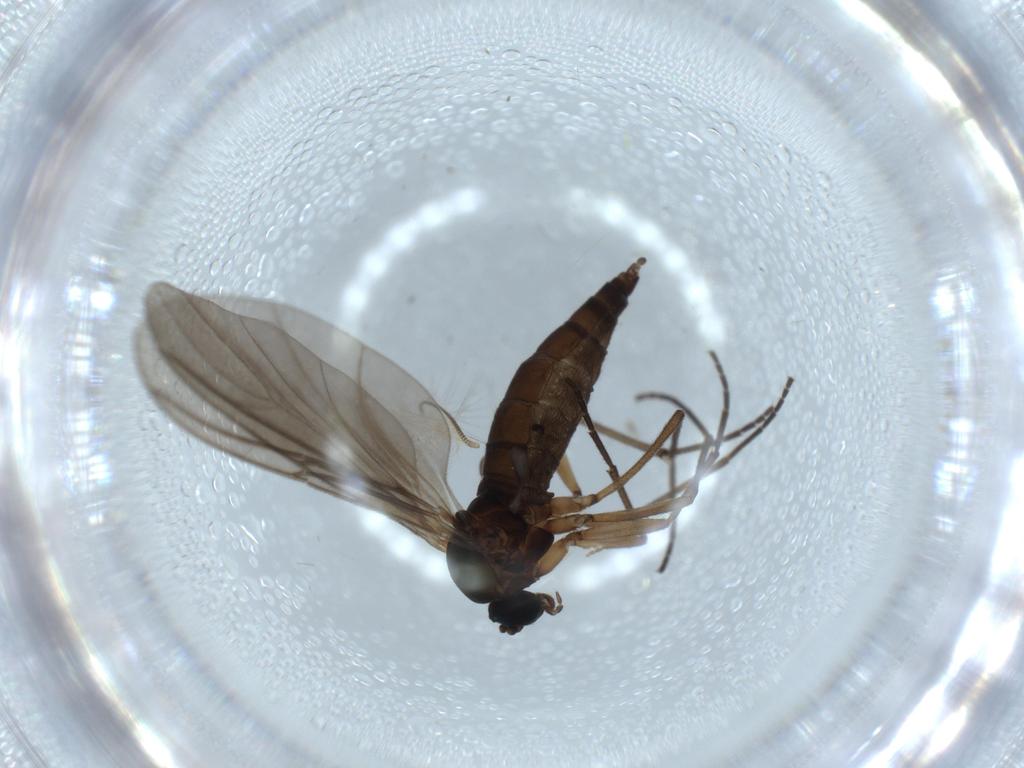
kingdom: Animalia
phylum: Arthropoda
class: Insecta
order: Diptera
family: Sciaridae
